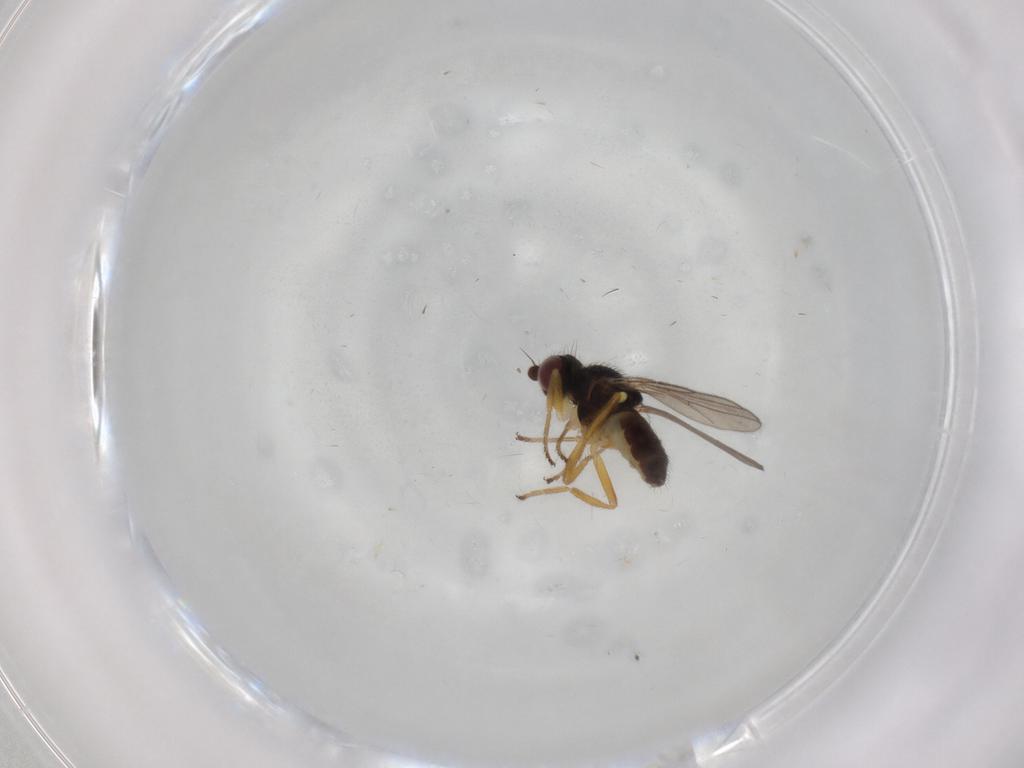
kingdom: Animalia
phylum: Arthropoda
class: Insecta
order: Diptera
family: Chloropidae
